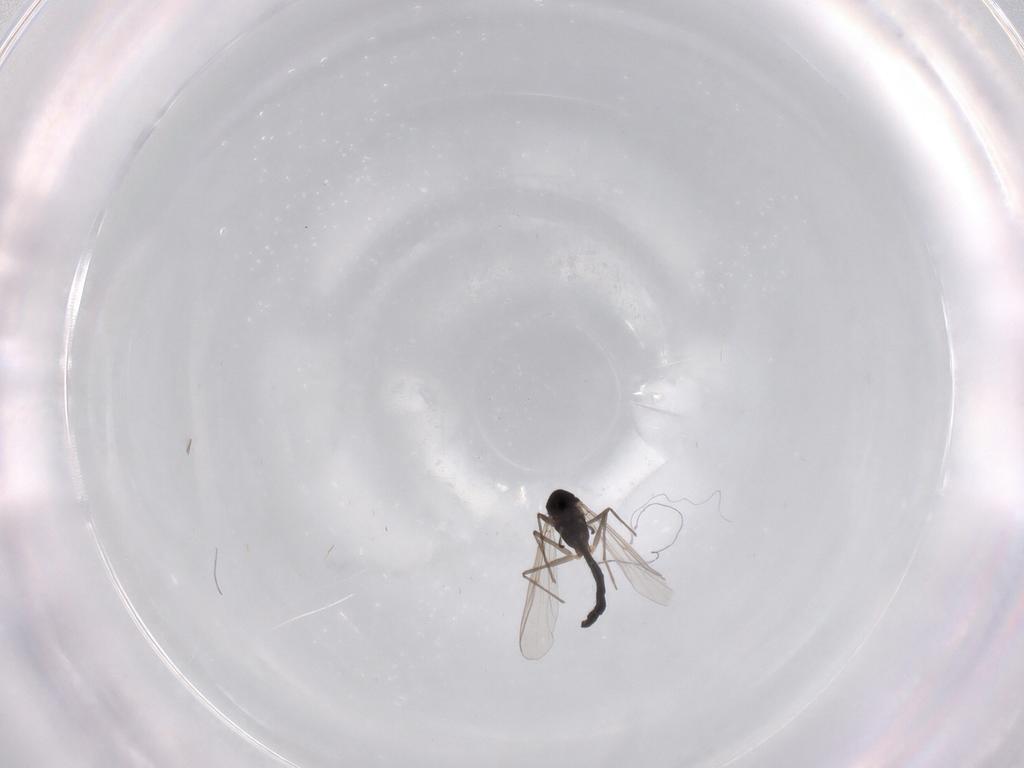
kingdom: Animalia
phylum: Arthropoda
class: Insecta
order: Diptera
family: Chironomidae
